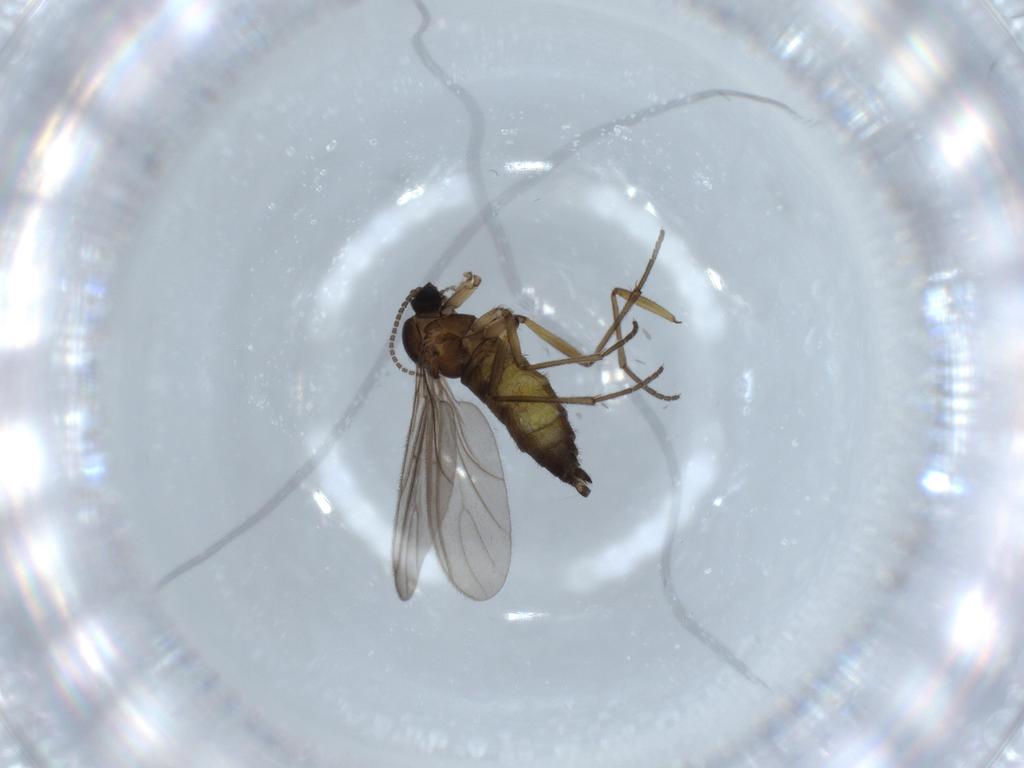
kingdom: Animalia
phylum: Arthropoda
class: Insecta
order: Diptera
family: Sciaridae
